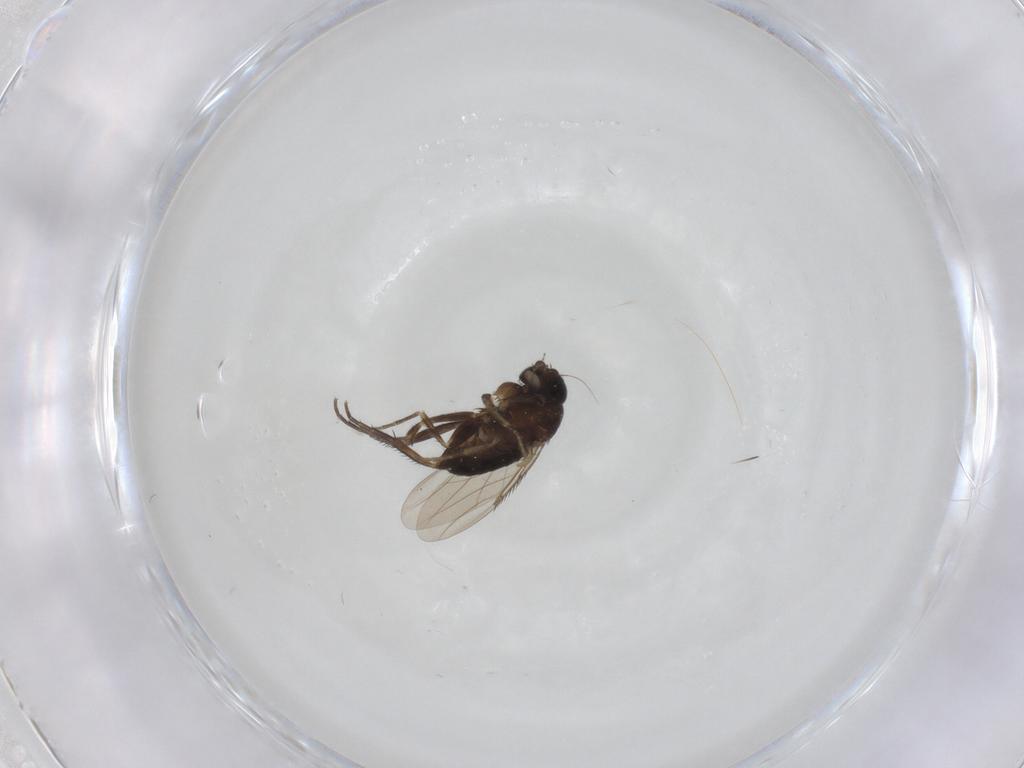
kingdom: Animalia
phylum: Arthropoda
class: Insecta
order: Diptera
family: Phoridae
